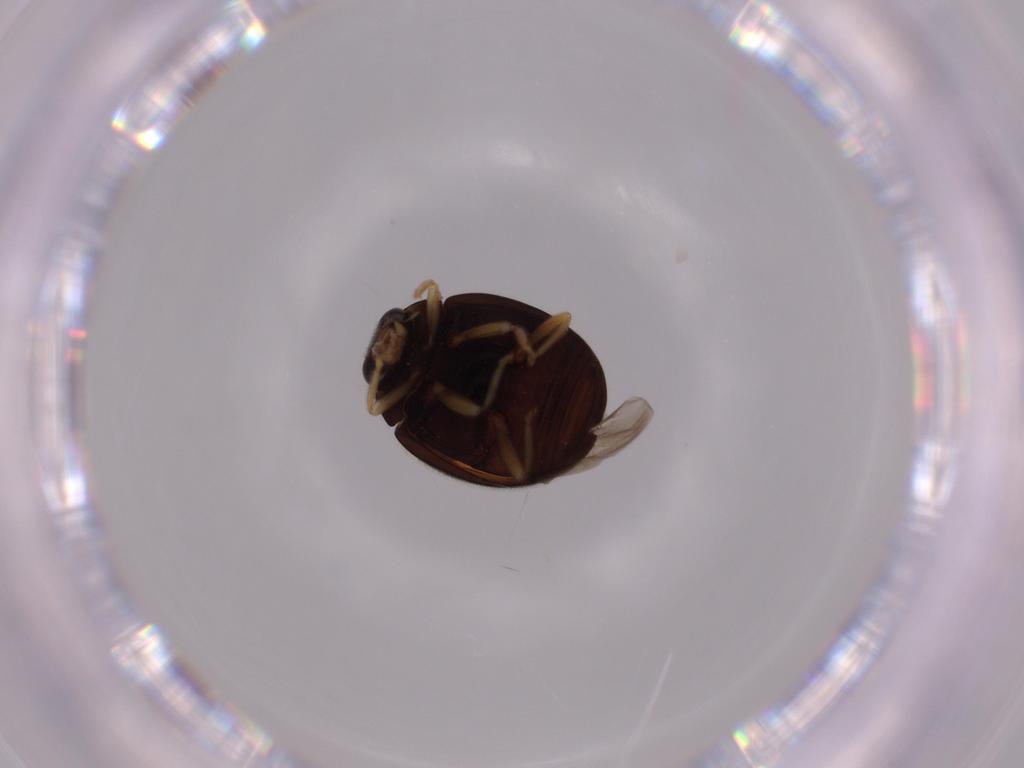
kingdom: Animalia
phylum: Arthropoda
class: Insecta
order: Coleoptera
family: Coccinellidae
